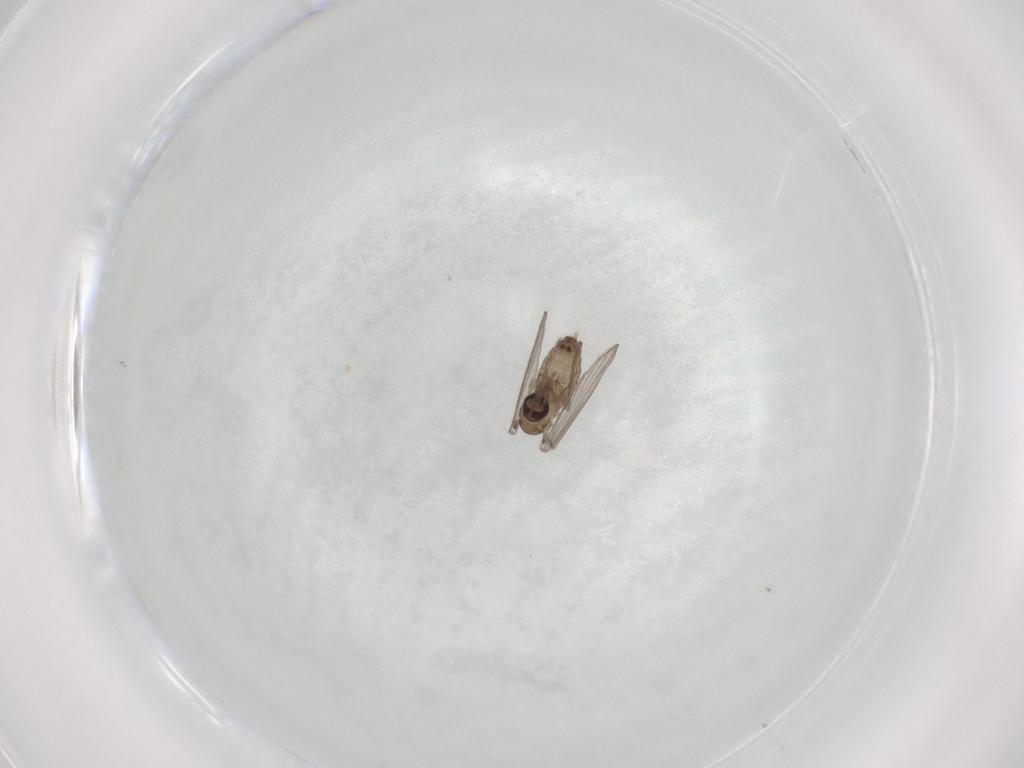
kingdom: Animalia
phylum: Arthropoda
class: Insecta
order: Diptera
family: Psychodidae
